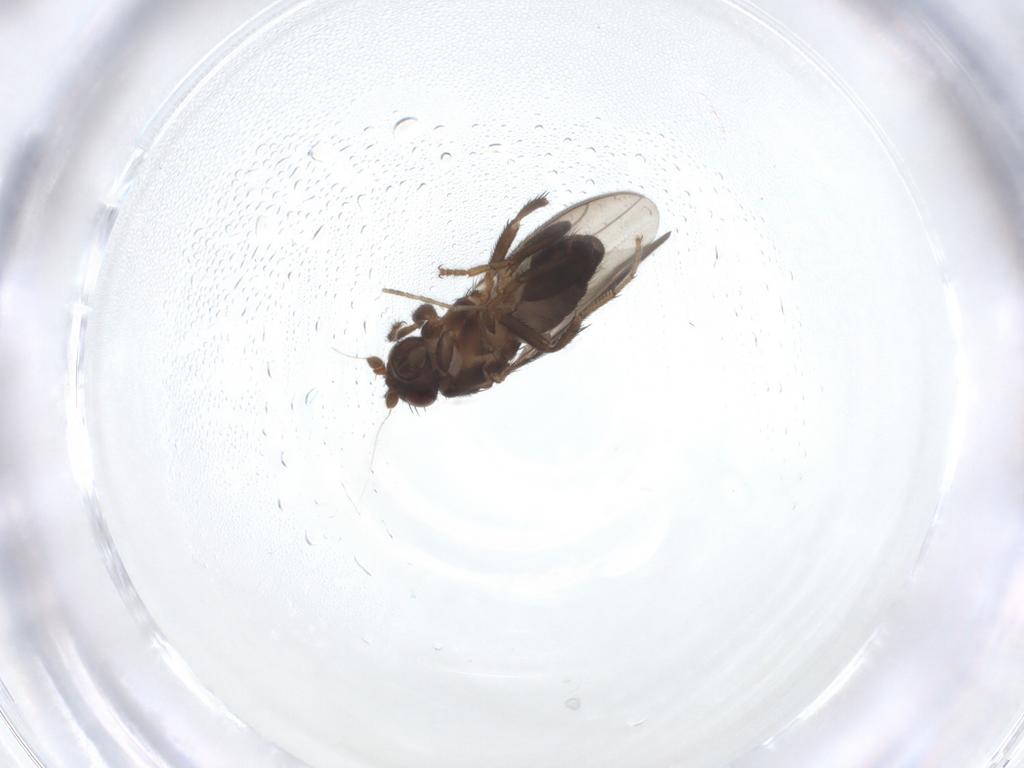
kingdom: Animalia
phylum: Arthropoda
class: Insecta
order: Diptera
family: Sphaeroceridae
